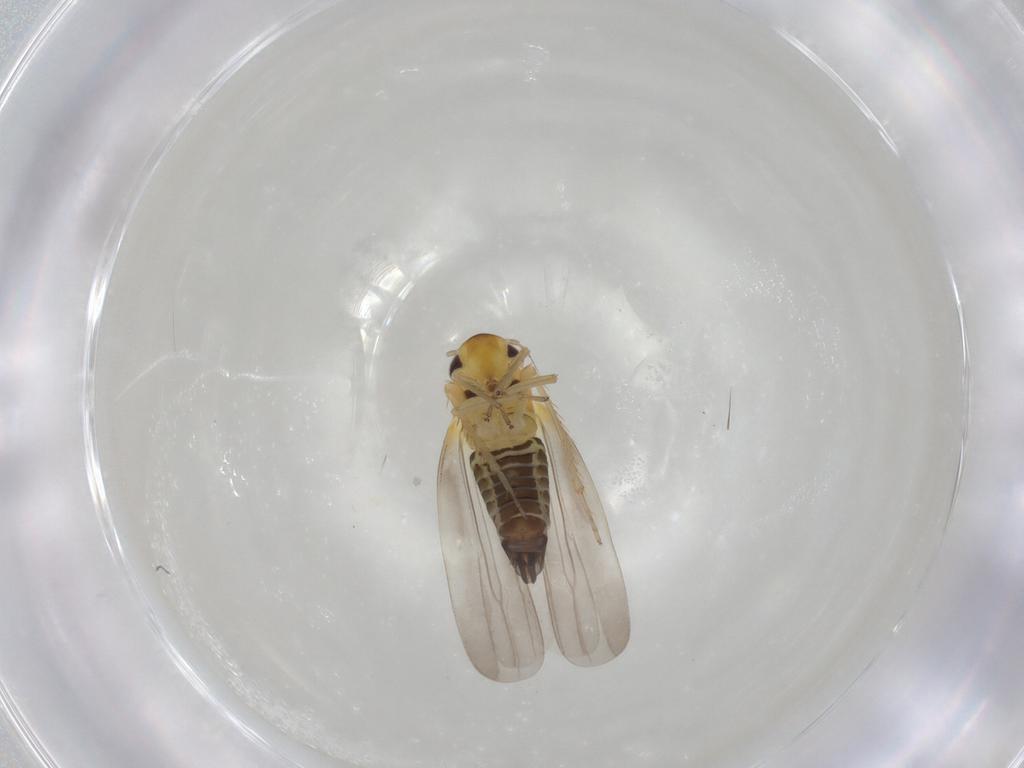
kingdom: Animalia
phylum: Arthropoda
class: Insecta
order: Hemiptera
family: Cicadellidae
